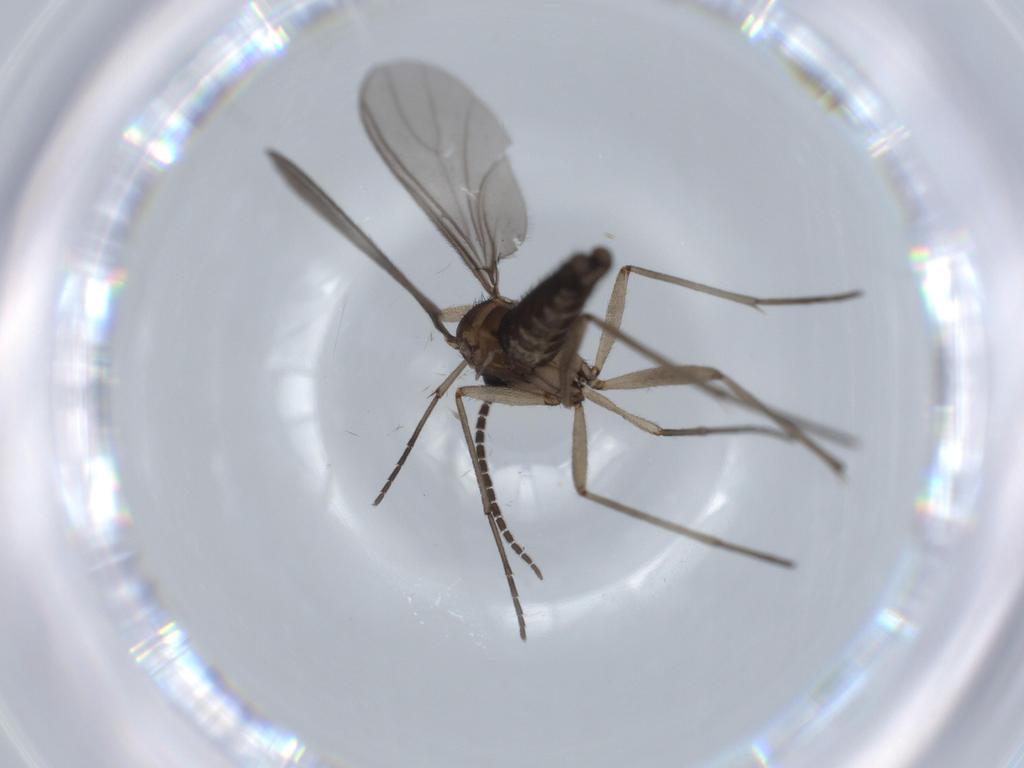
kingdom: Animalia
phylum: Arthropoda
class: Insecta
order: Diptera
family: Sciaridae
